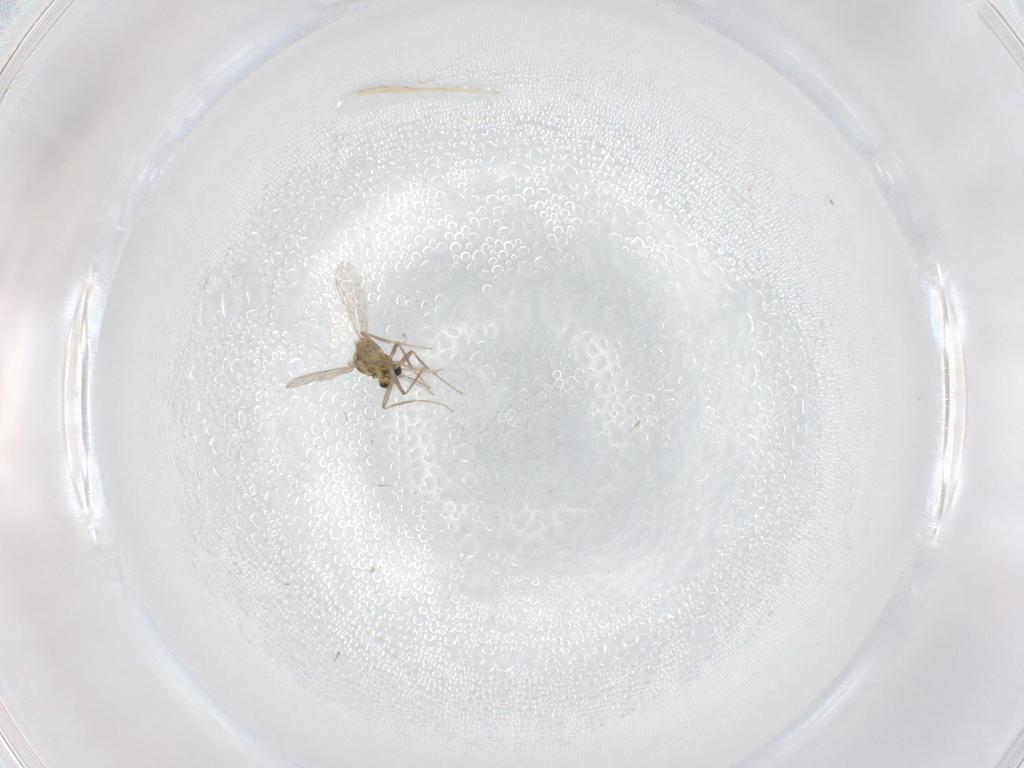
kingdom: Animalia
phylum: Arthropoda
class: Insecta
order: Diptera
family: Chironomidae
